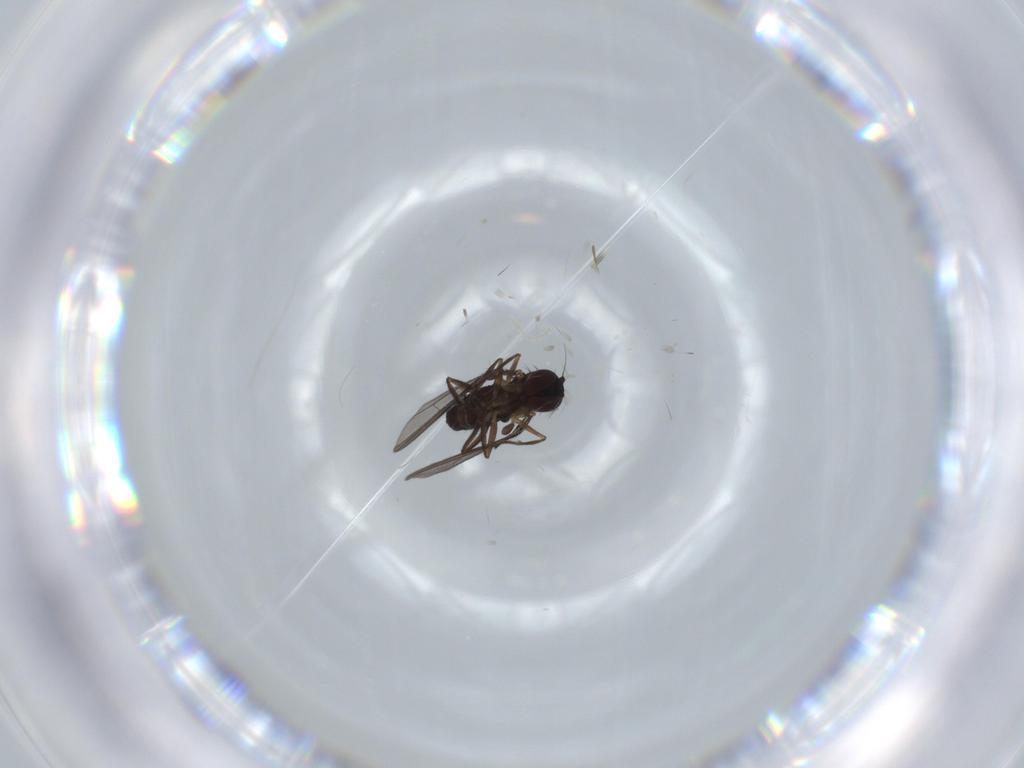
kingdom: Animalia
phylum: Arthropoda
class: Insecta
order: Diptera
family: Dolichopodidae
